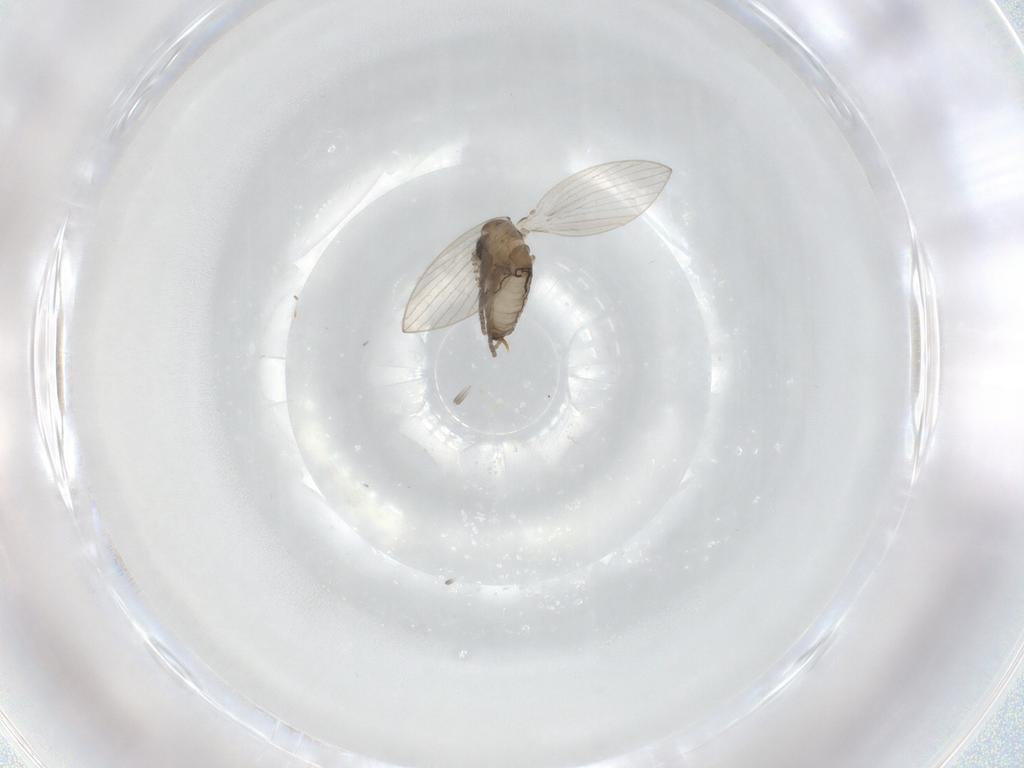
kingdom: Animalia
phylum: Arthropoda
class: Insecta
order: Diptera
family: Psychodidae
